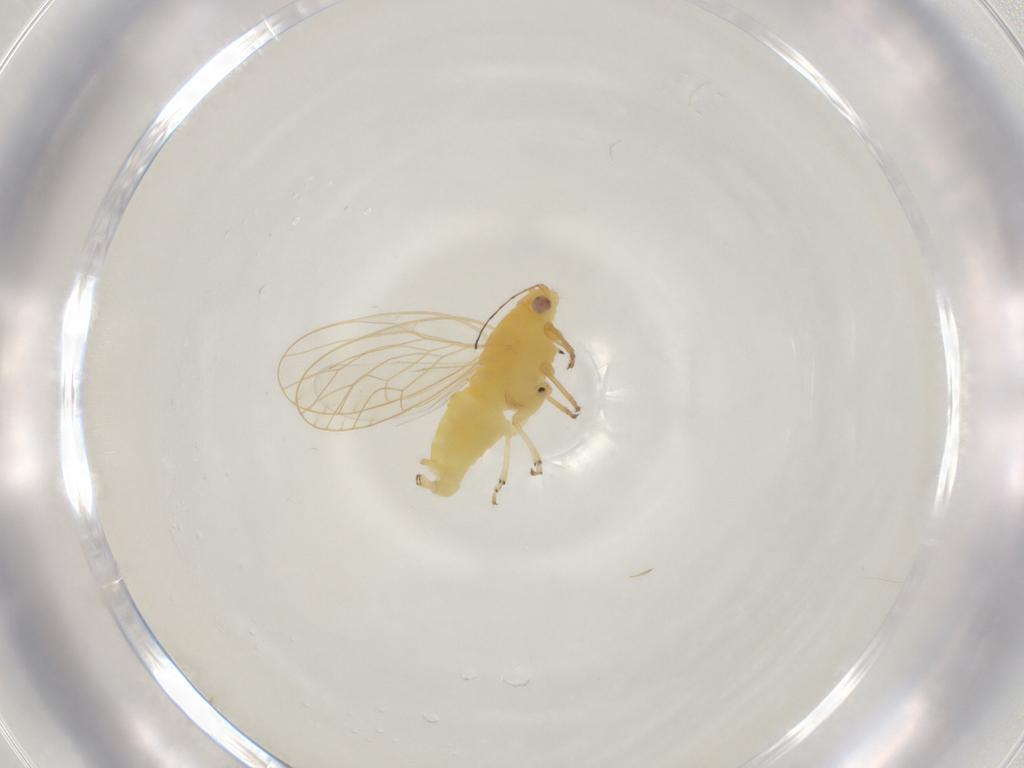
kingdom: Animalia
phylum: Arthropoda
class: Insecta
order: Hemiptera
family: Psyllidae
